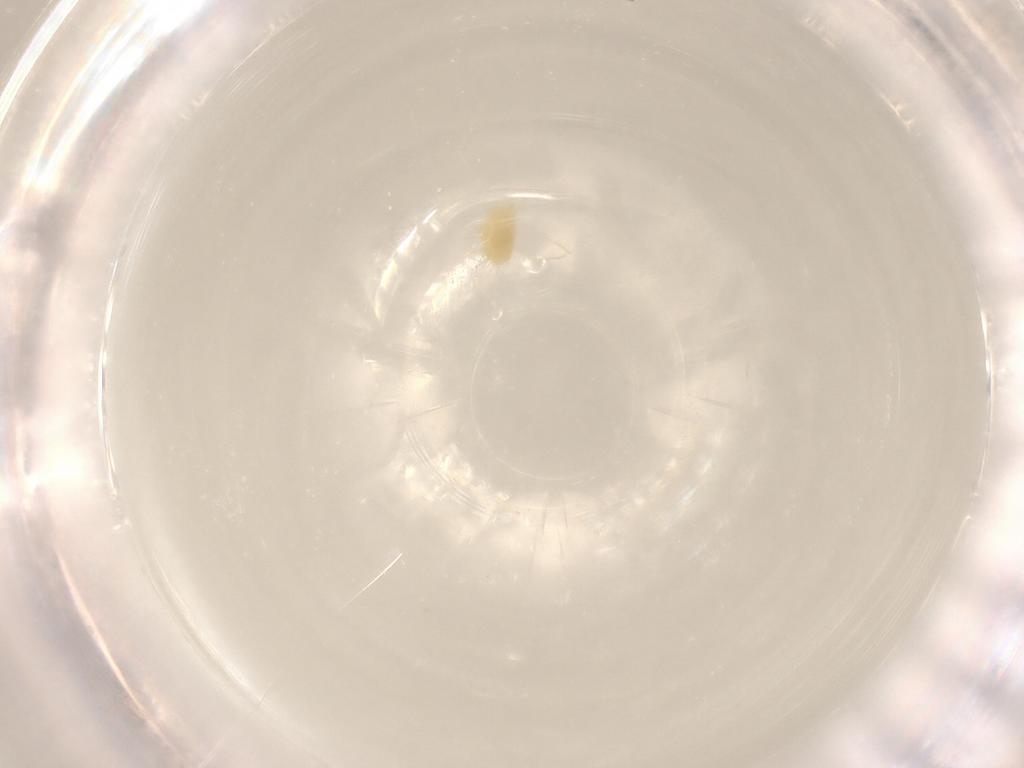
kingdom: Animalia
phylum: Arthropoda
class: Arachnida
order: Trombidiformes
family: Tetranychidae
